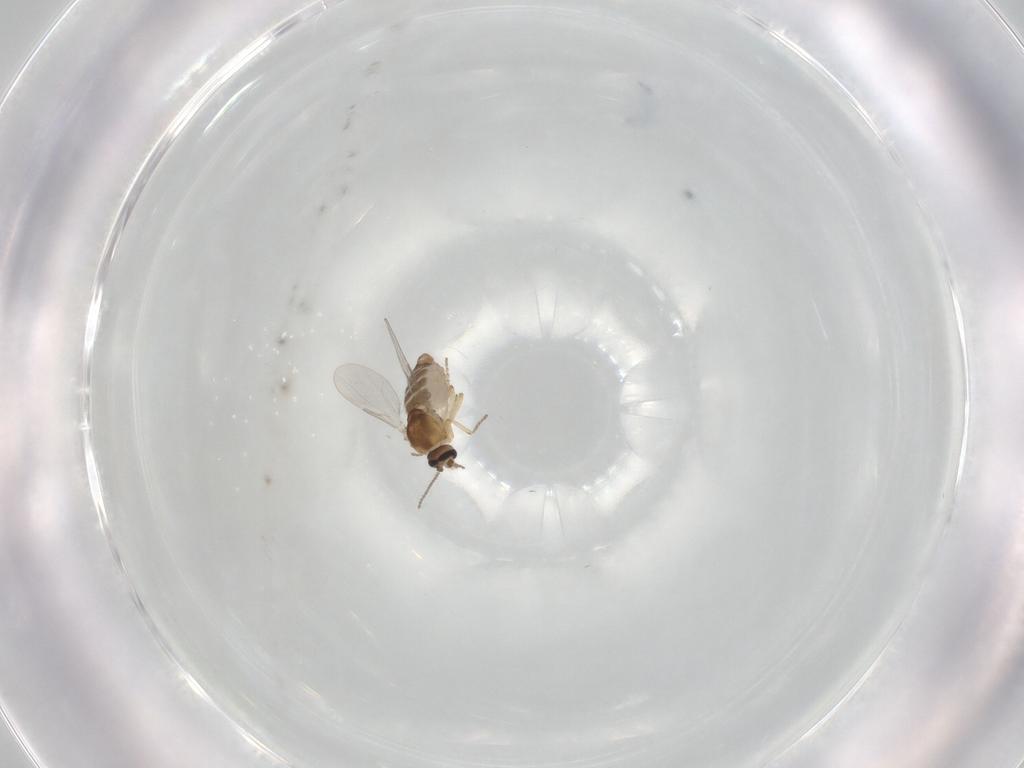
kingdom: Animalia
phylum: Arthropoda
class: Insecta
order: Diptera
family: Ceratopogonidae
